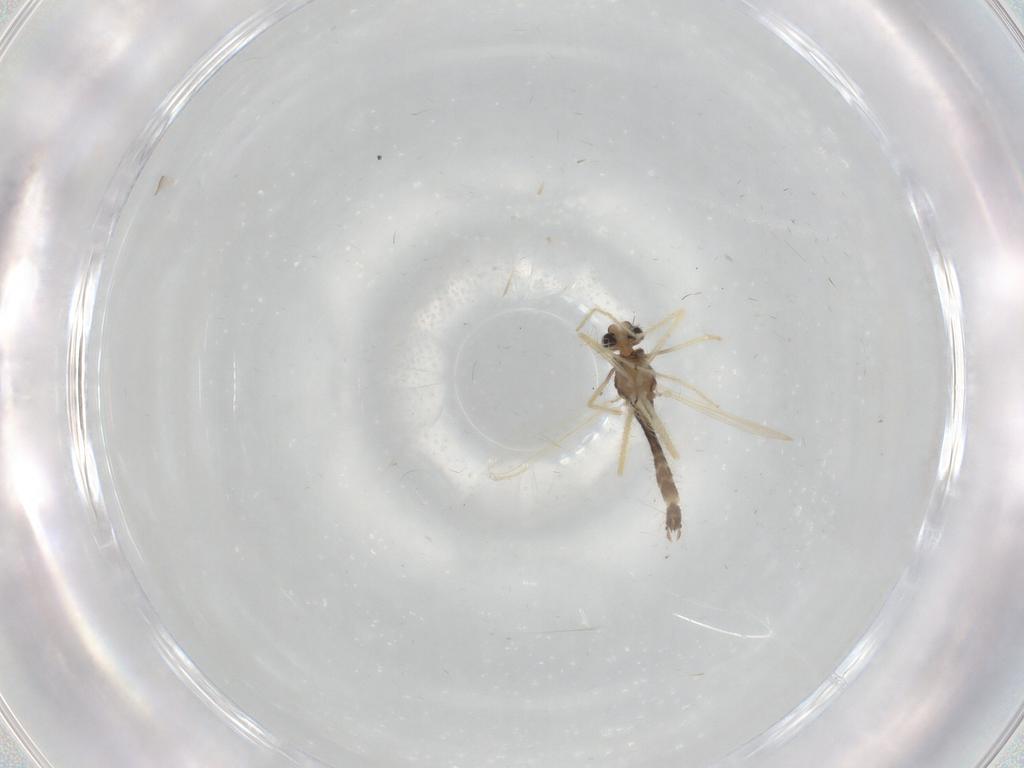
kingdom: Animalia
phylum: Arthropoda
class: Insecta
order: Diptera
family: Chironomidae
